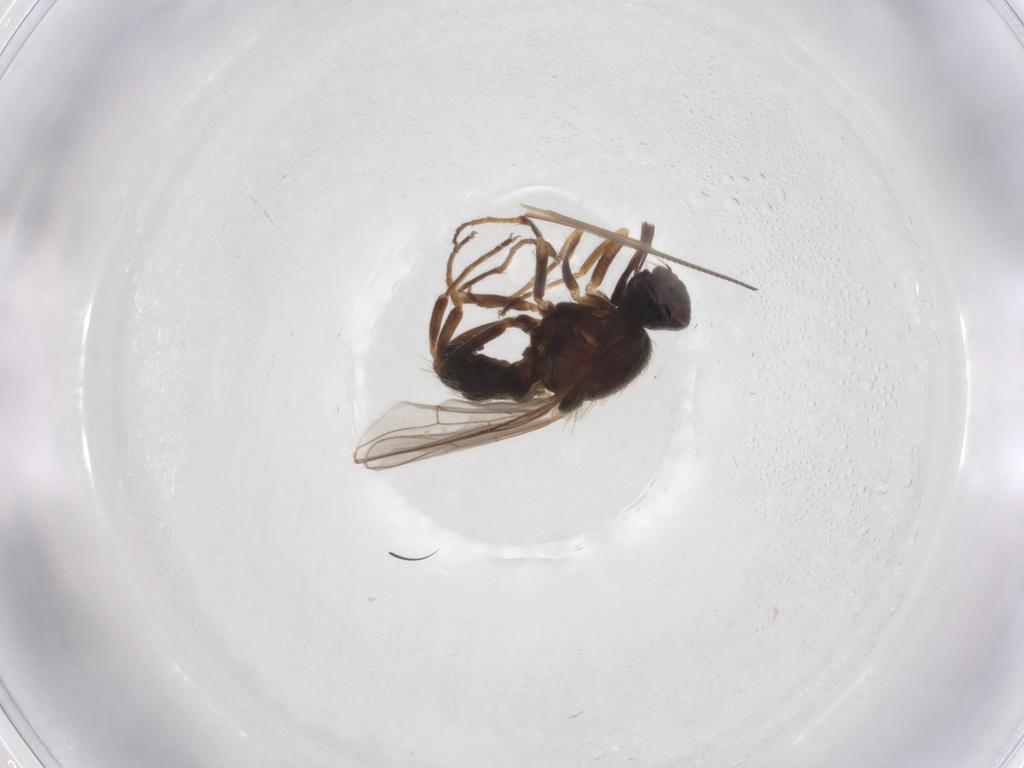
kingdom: Animalia
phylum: Arthropoda
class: Insecta
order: Diptera
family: Muscidae
